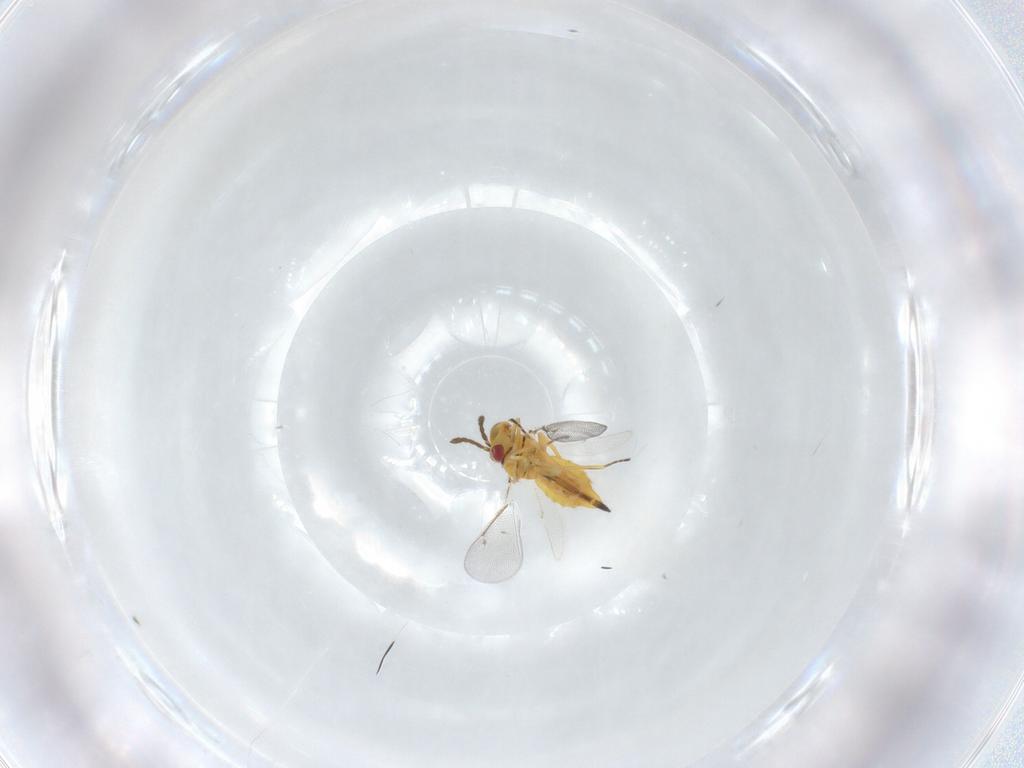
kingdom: Animalia
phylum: Arthropoda
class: Insecta
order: Hymenoptera
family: Eulophidae
